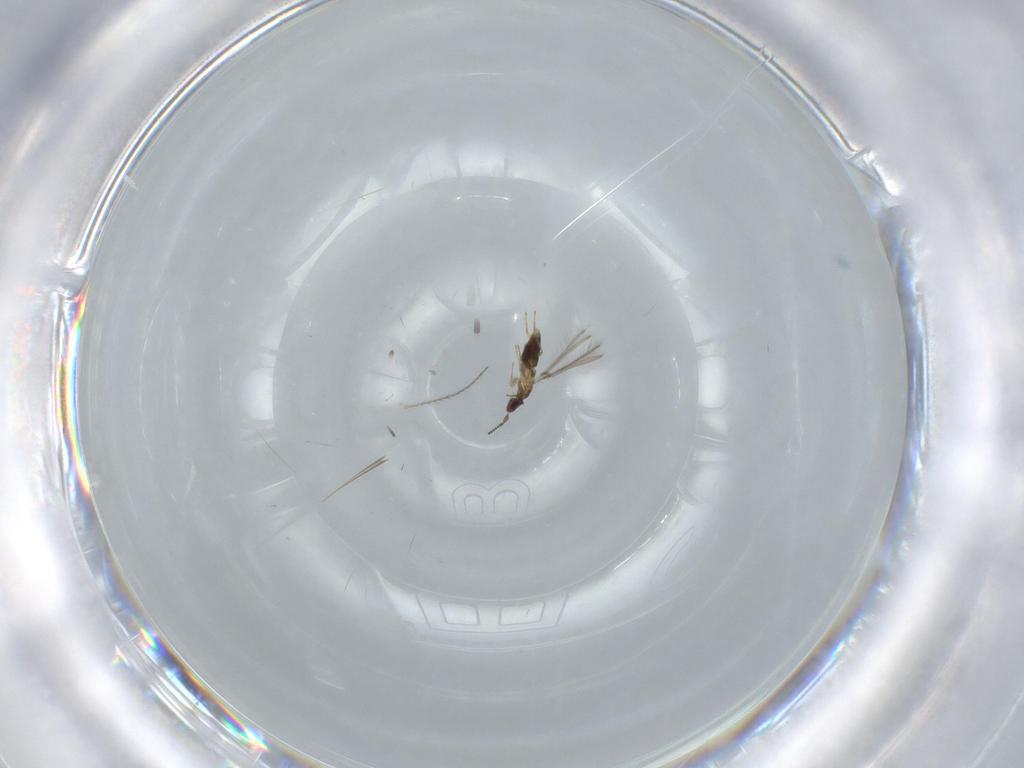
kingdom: Animalia
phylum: Arthropoda
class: Insecta
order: Hymenoptera
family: Mymaridae
